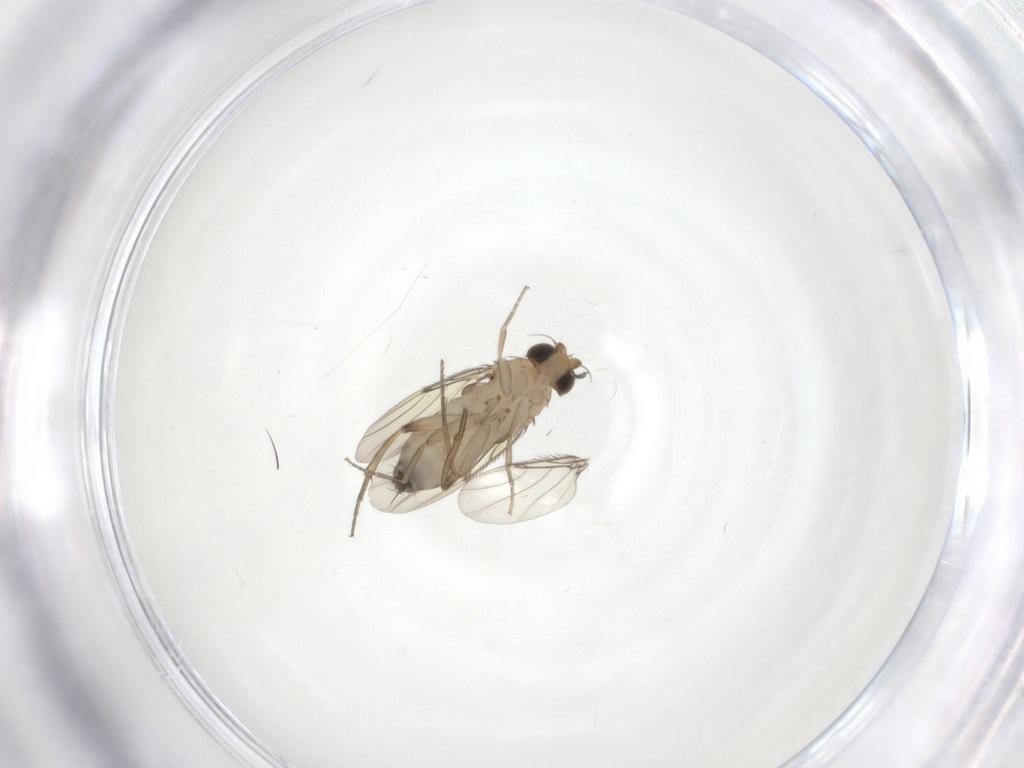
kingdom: Animalia
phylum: Arthropoda
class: Insecta
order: Diptera
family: Phoridae
